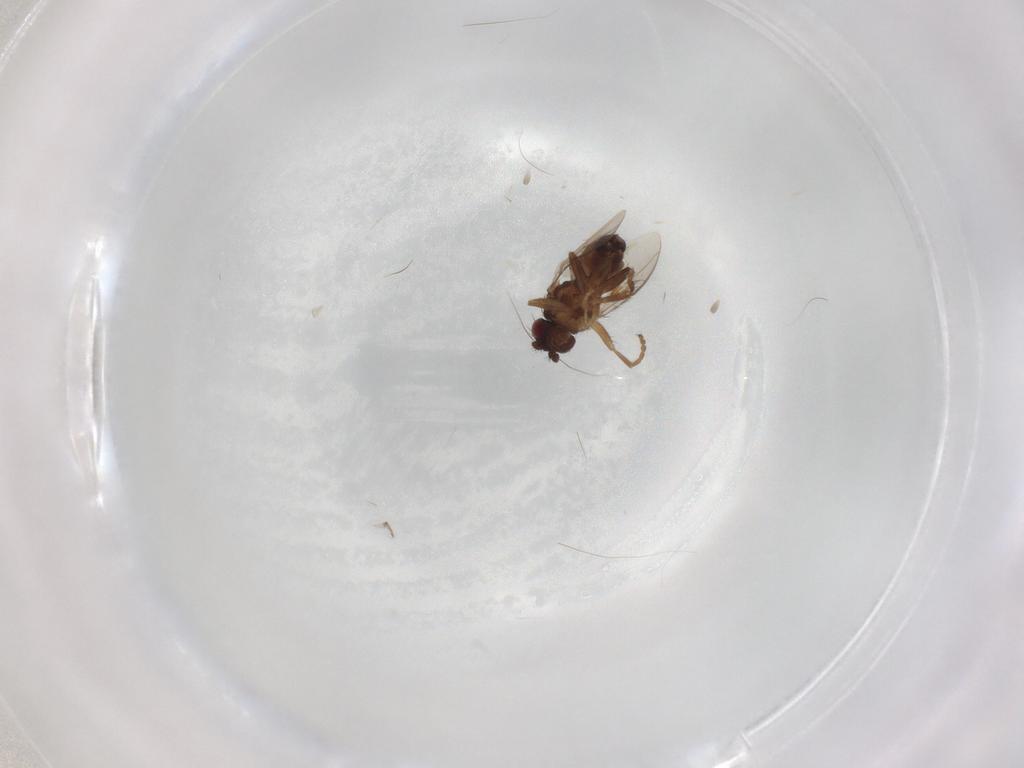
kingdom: Animalia
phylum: Arthropoda
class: Insecta
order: Diptera
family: Sphaeroceridae
